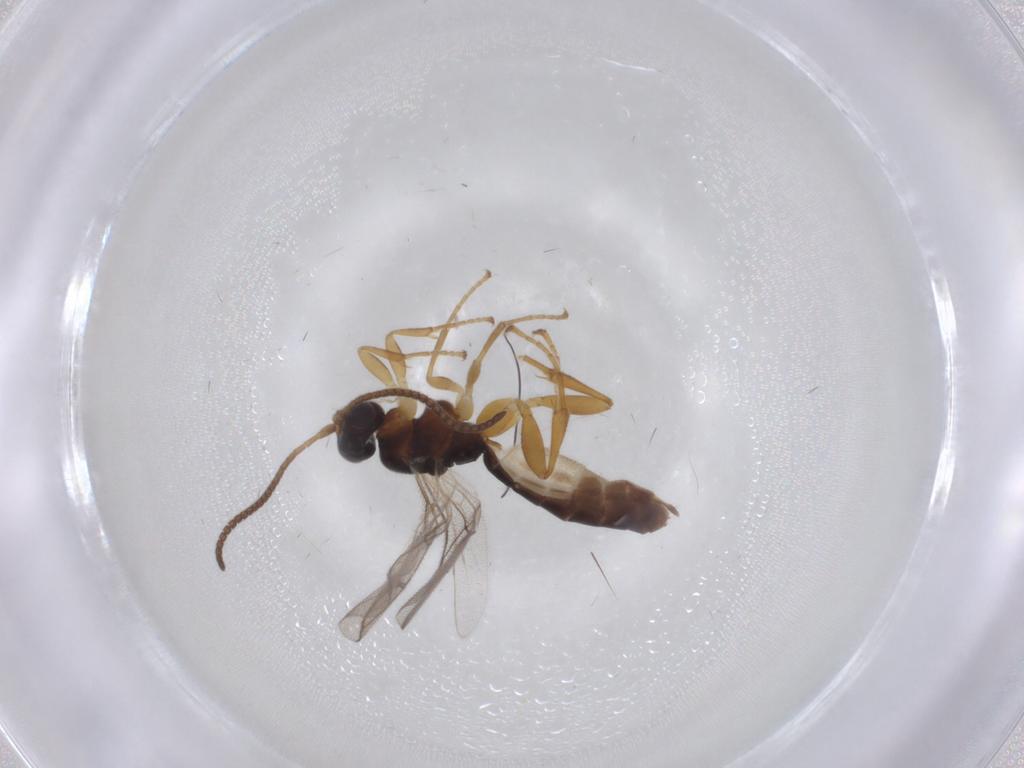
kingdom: Animalia
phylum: Arthropoda
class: Insecta
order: Hymenoptera
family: Ichneumonidae
